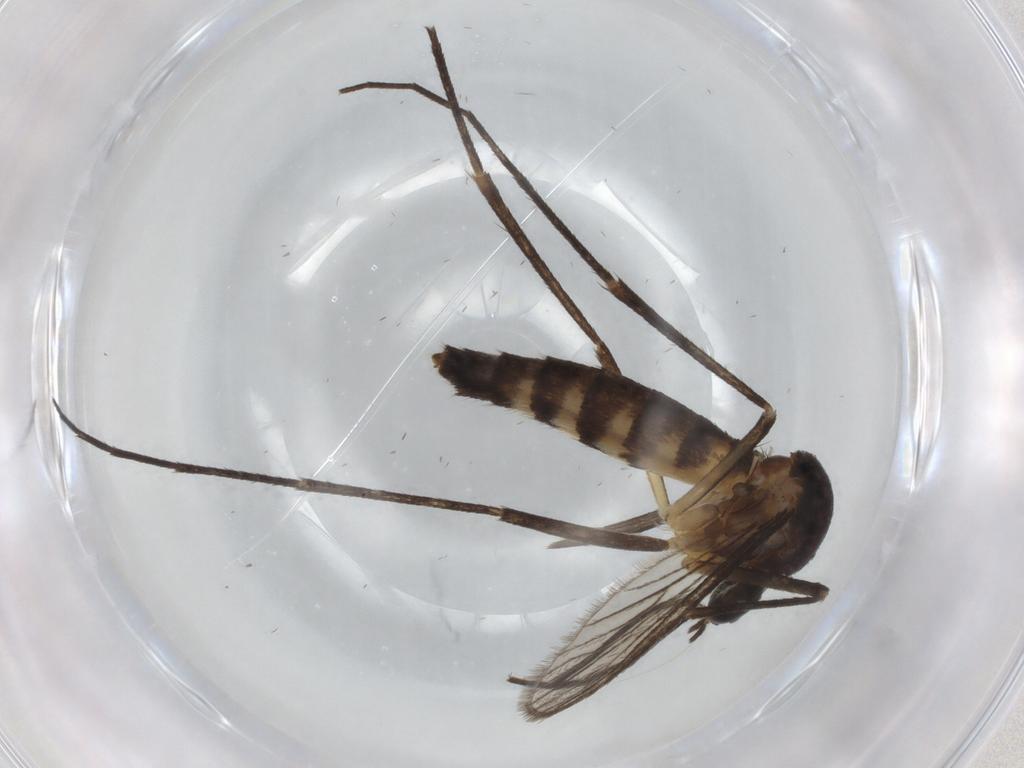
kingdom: Animalia
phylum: Arthropoda
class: Insecta
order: Diptera
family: Culicidae
